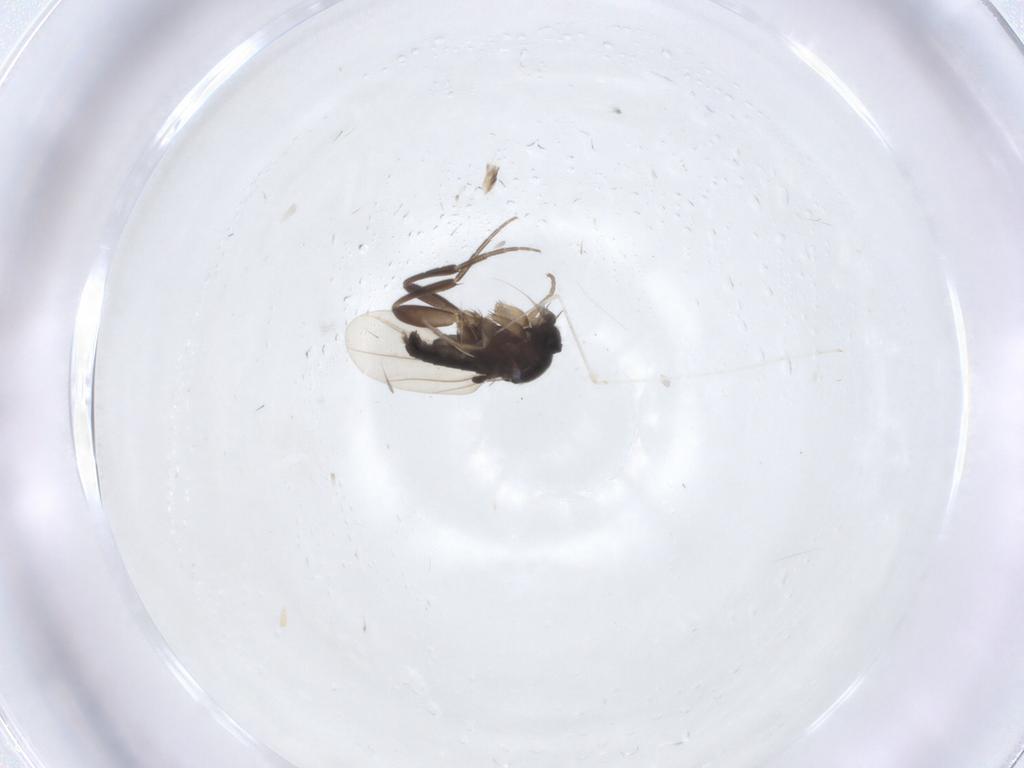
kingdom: Animalia
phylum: Arthropoda
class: Insecta
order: Diptera
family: Phoridae
